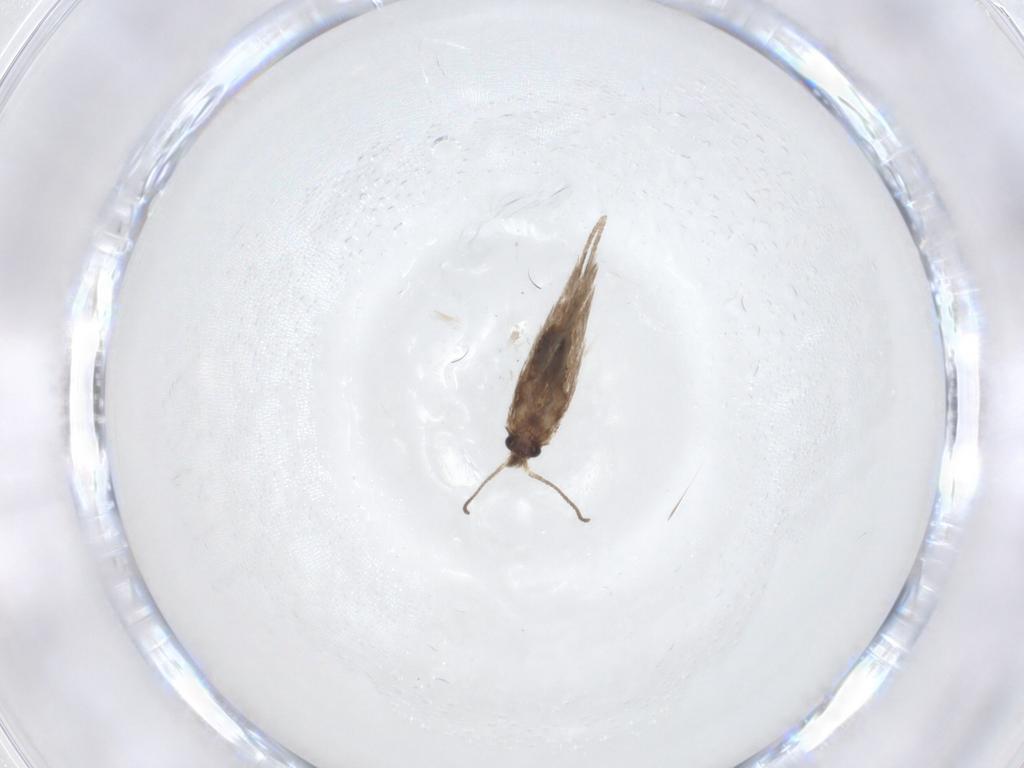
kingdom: Animalia
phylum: Arthropoda
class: Insecta
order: Lepidoptera
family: Nepticulidae
